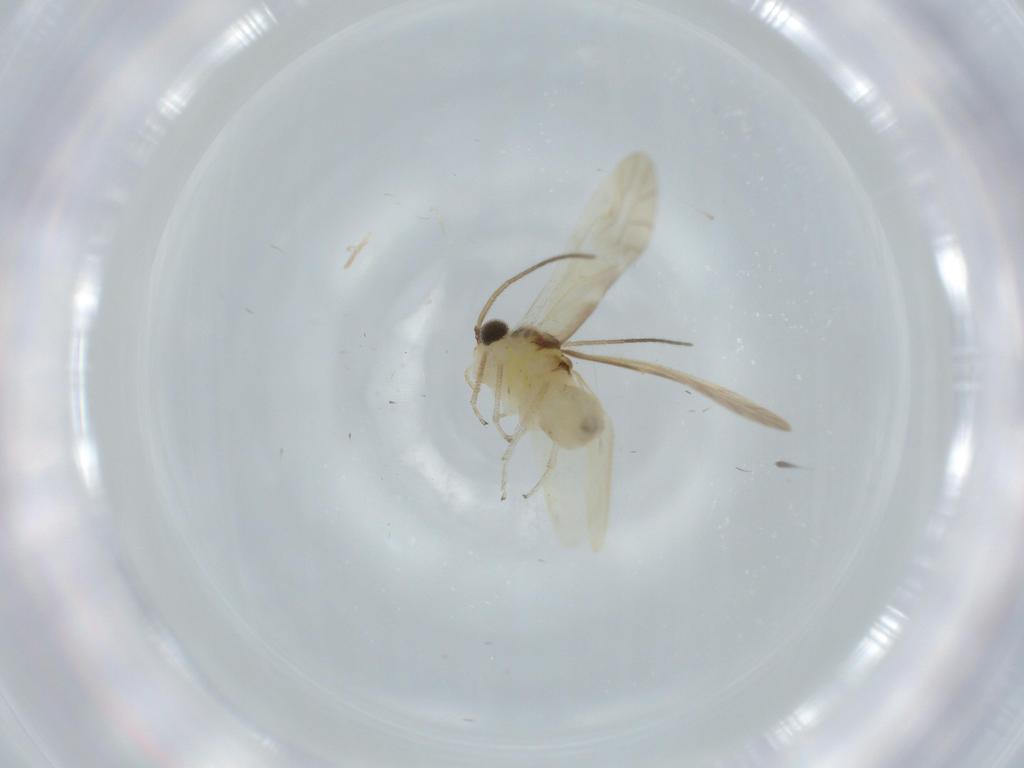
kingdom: Animalia
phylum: Arthropoda
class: Insecta
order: Psocodea
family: Caeciliusidae
